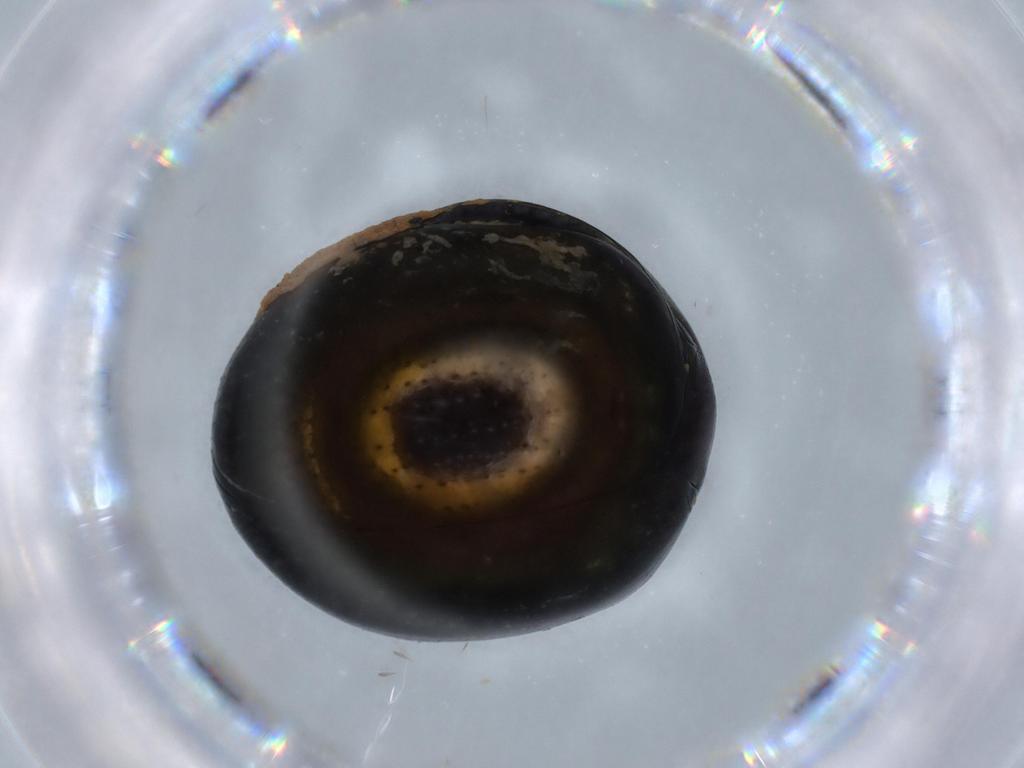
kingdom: Animalia
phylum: Arthropoda
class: Insecta
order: Coleoptera
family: Hybosoridae
